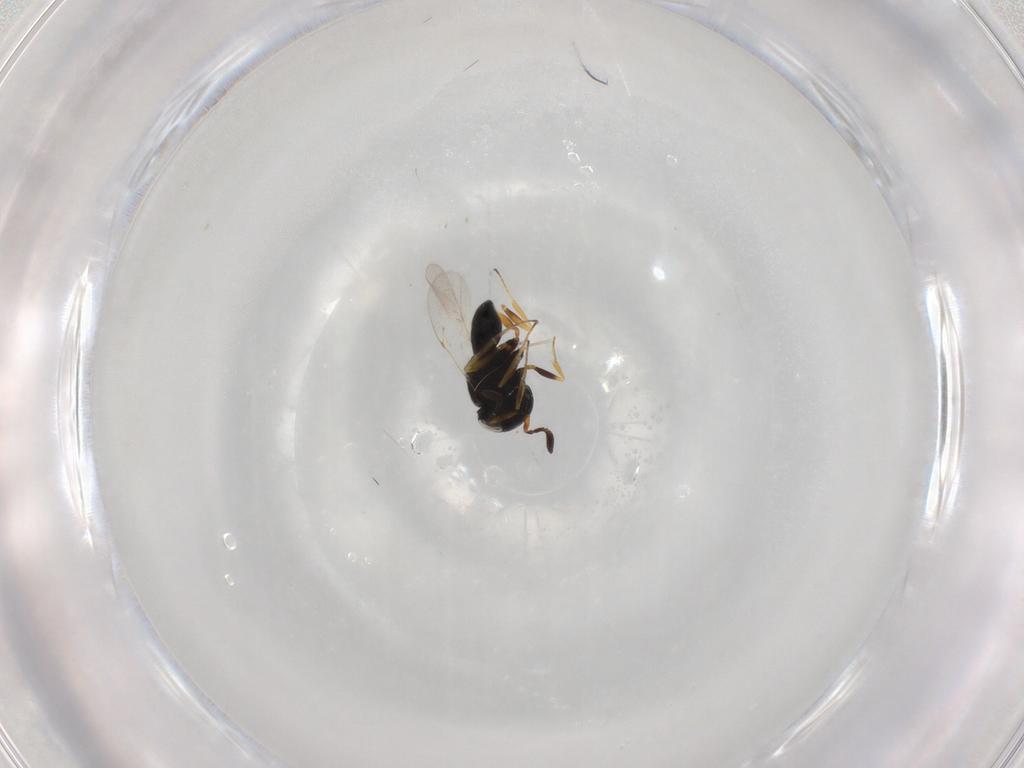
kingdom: Animalia
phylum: Arthropoda
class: Insecta
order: Hymenoptera
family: Scelionidae
